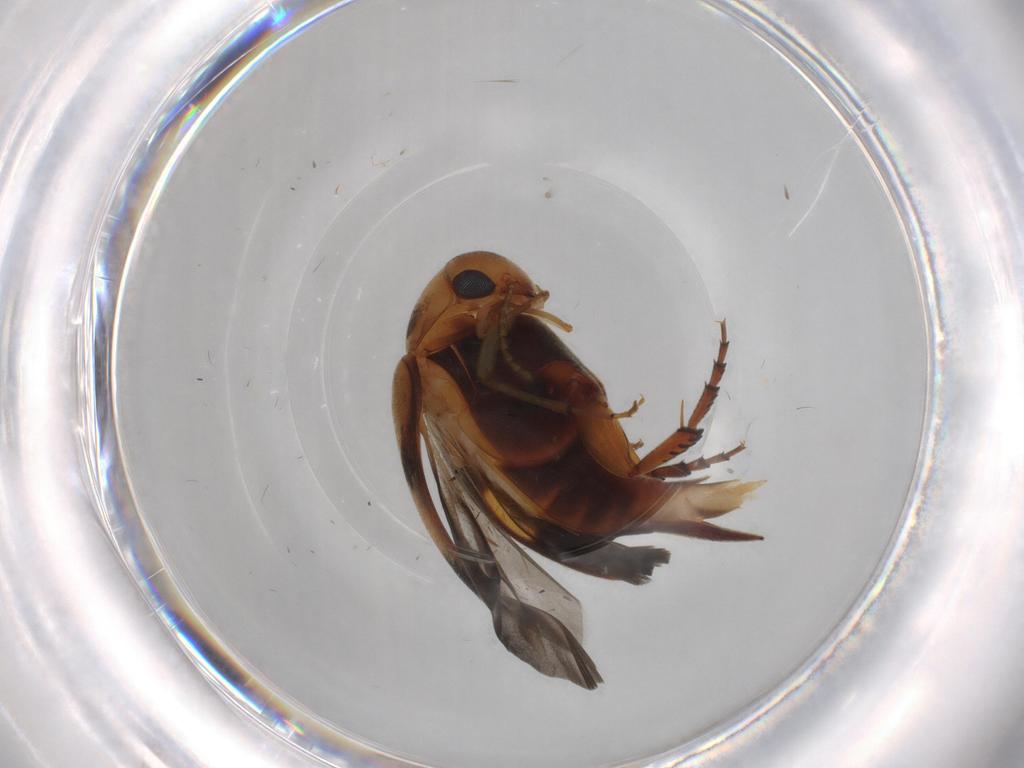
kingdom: Animalia
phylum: Arthropoda
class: Insecta
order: Coleoptera
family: Mordellidae
